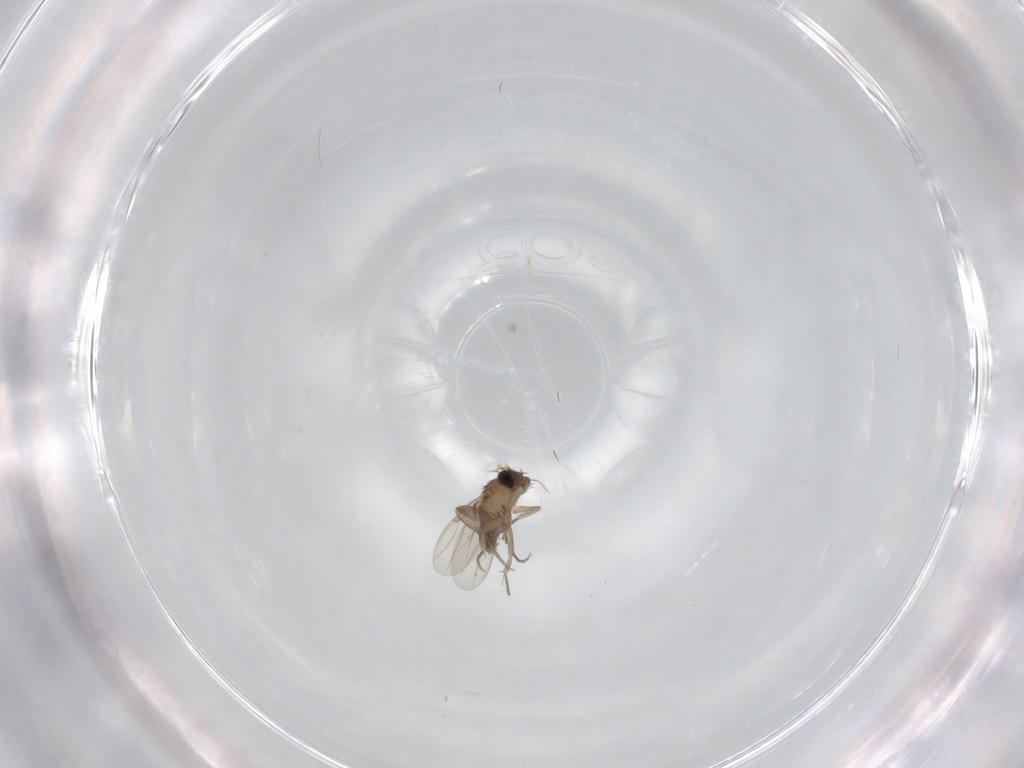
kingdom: Animalia
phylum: Arthropoda
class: Insecta
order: Diptera
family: Phoridae
